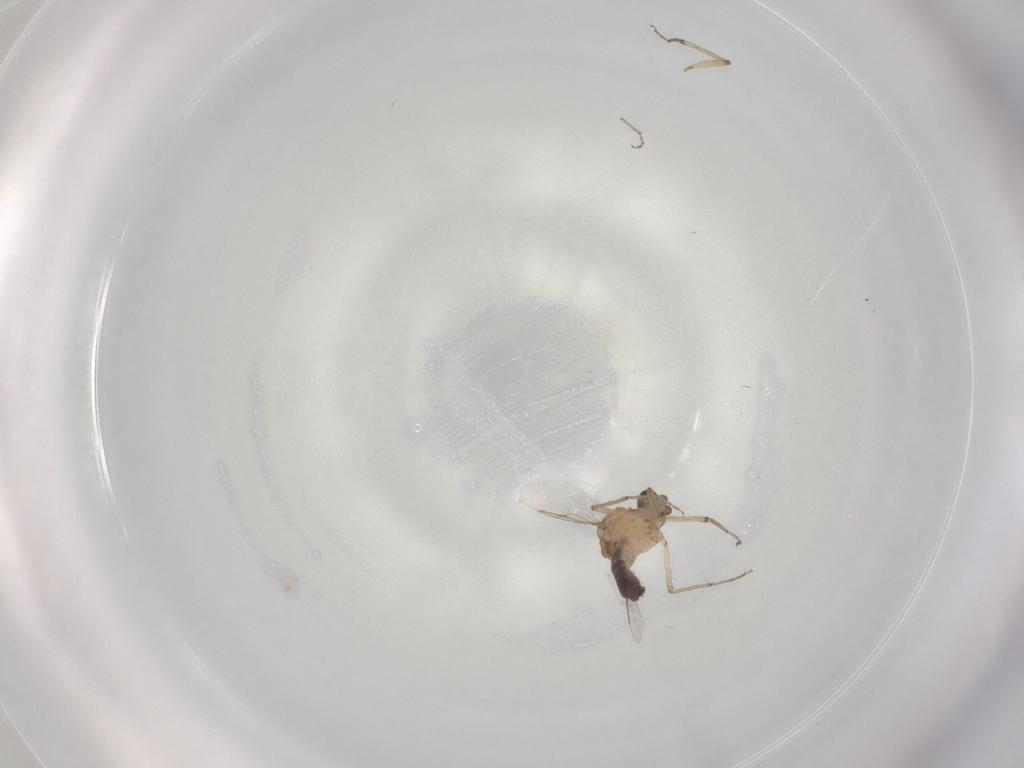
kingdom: Animalia
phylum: Arthropoda
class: Insecta
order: Diptera
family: Ceratopogonidae
